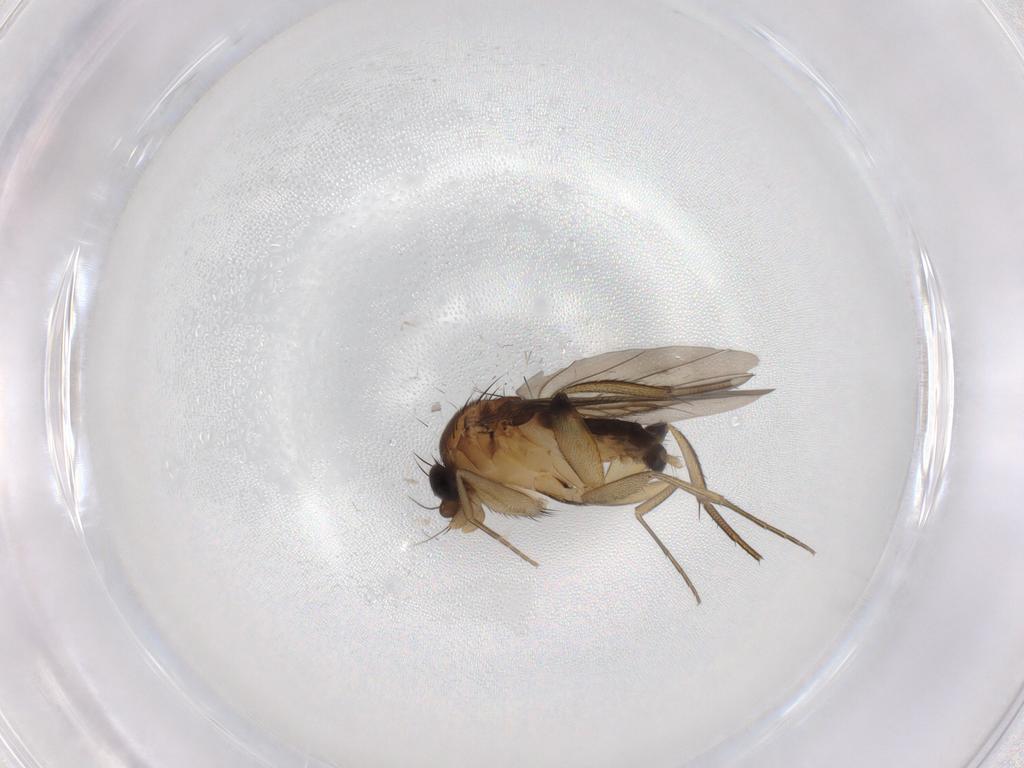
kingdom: Animalia
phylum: Arthropoda
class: Insecta
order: Diptera
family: Phoridae
